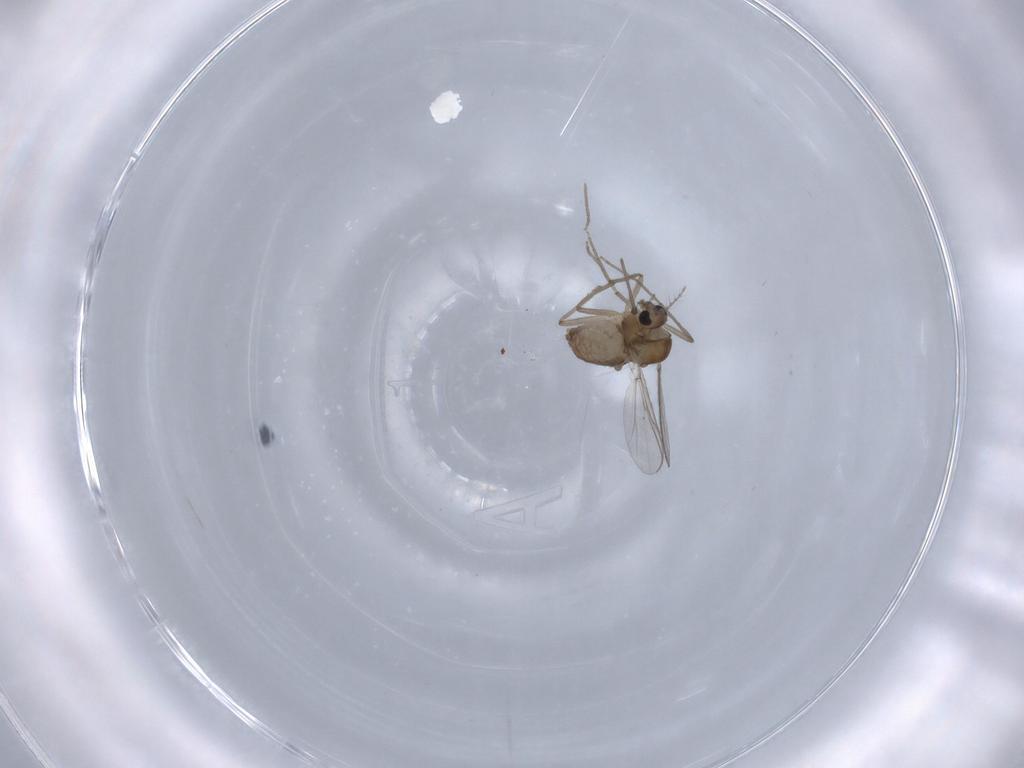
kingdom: Animalia
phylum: Arthropoda
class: Insecta
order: Diptera
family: Chironomidae
